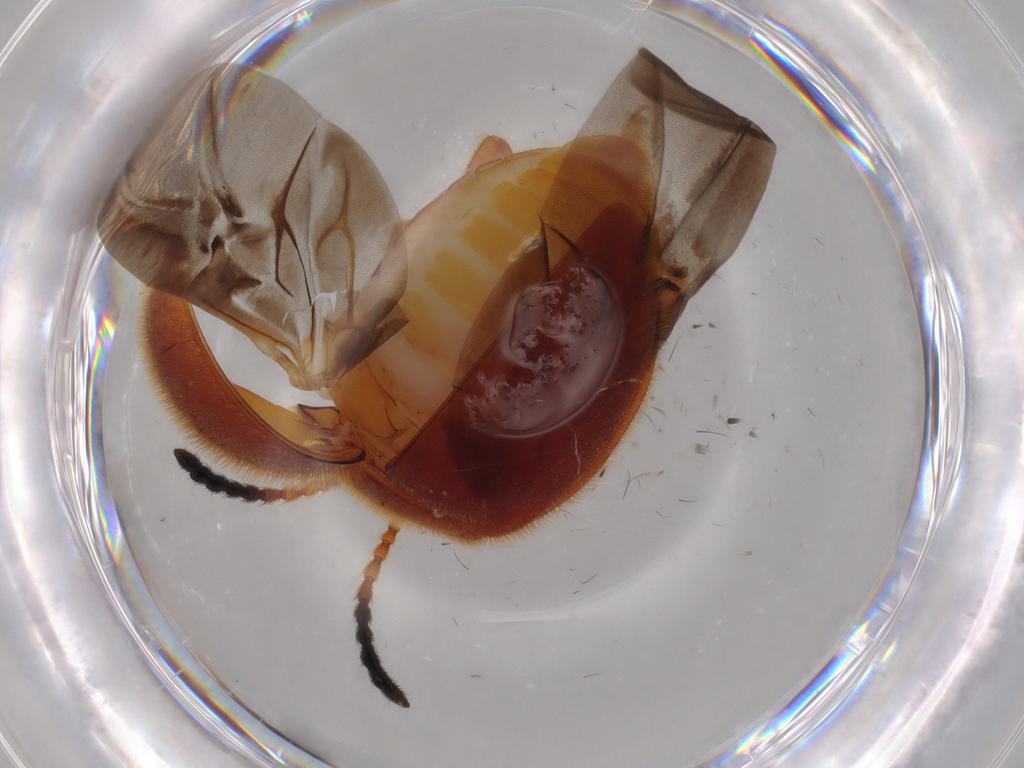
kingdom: Animalia
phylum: Arthropoda
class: Insecta
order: Coleoptera
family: Endomychidae
